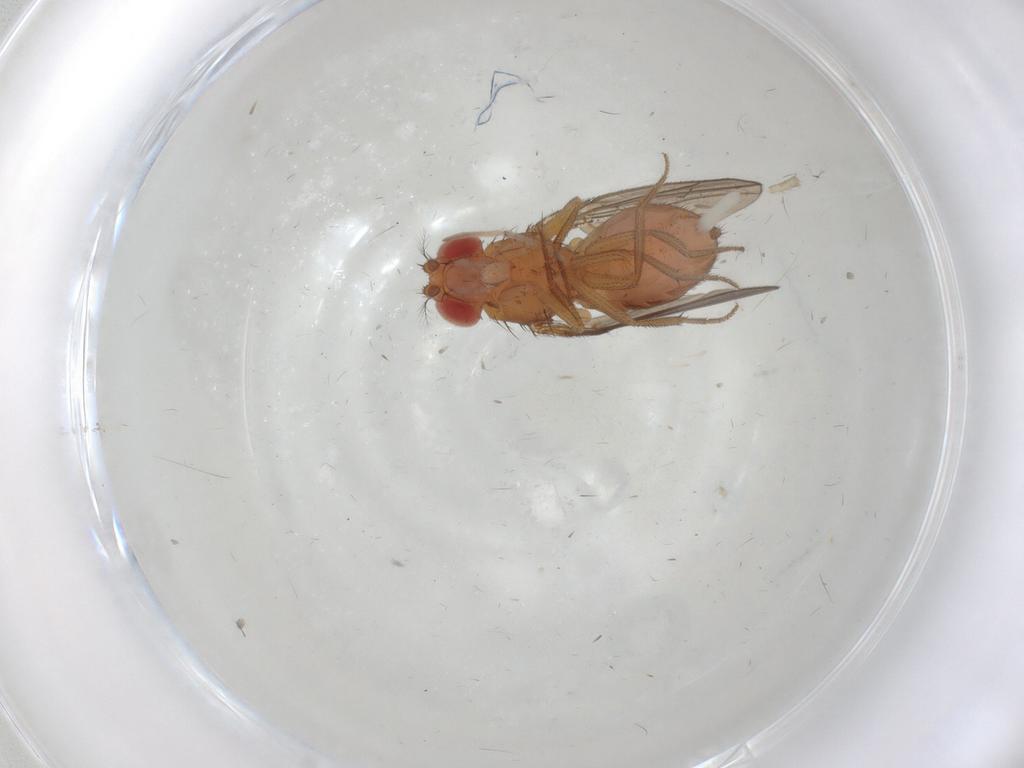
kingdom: Animalia
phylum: Arthropoda
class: Insecta
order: Diptera
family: Drosophilidae
